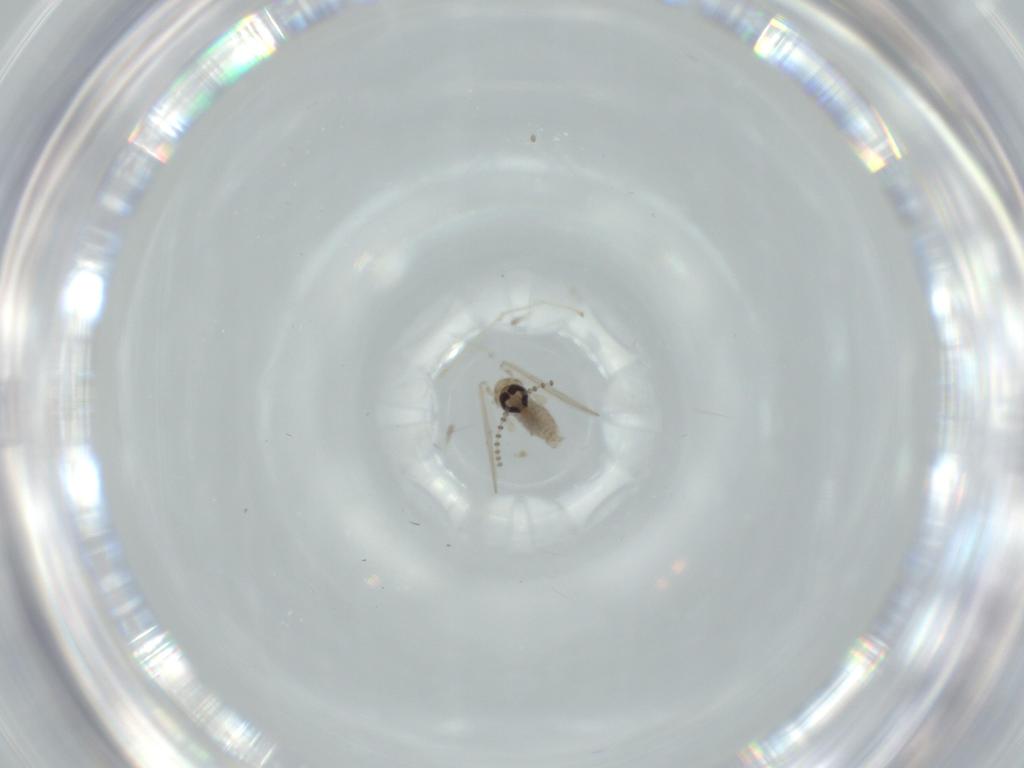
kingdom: Animalia
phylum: Arthropoda
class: Insecta
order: Diptera
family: Psychodidae
